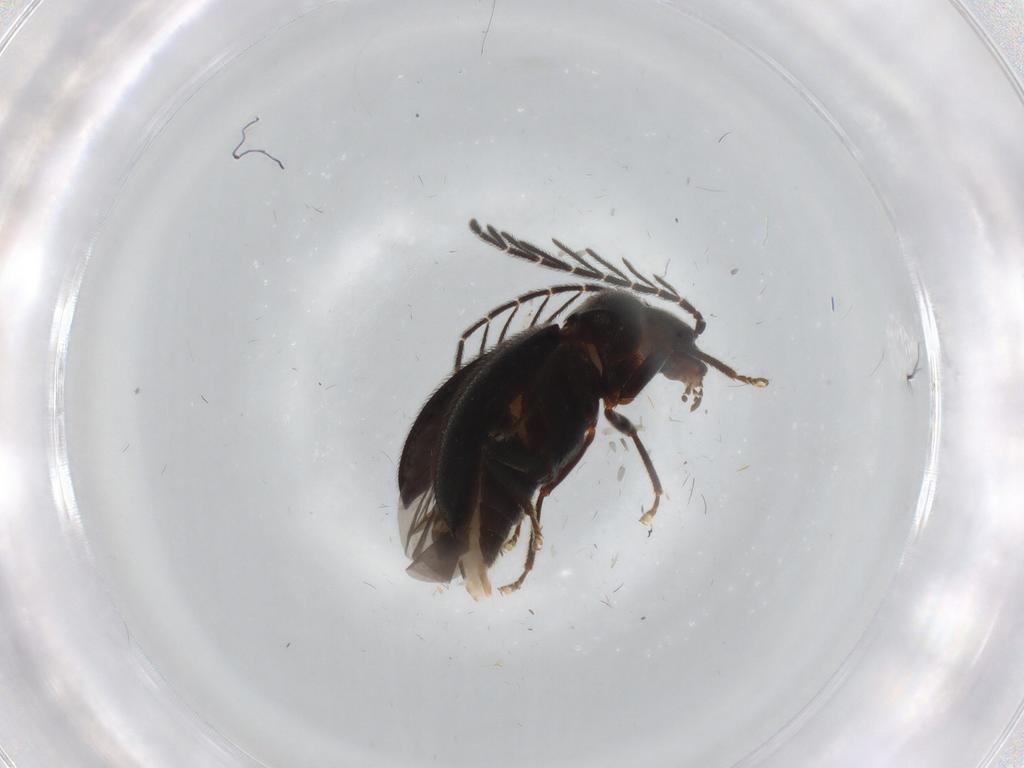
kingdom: Animalia
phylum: Arthropoda
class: Insecta
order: Coleoptera
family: Ptilodactylidae
